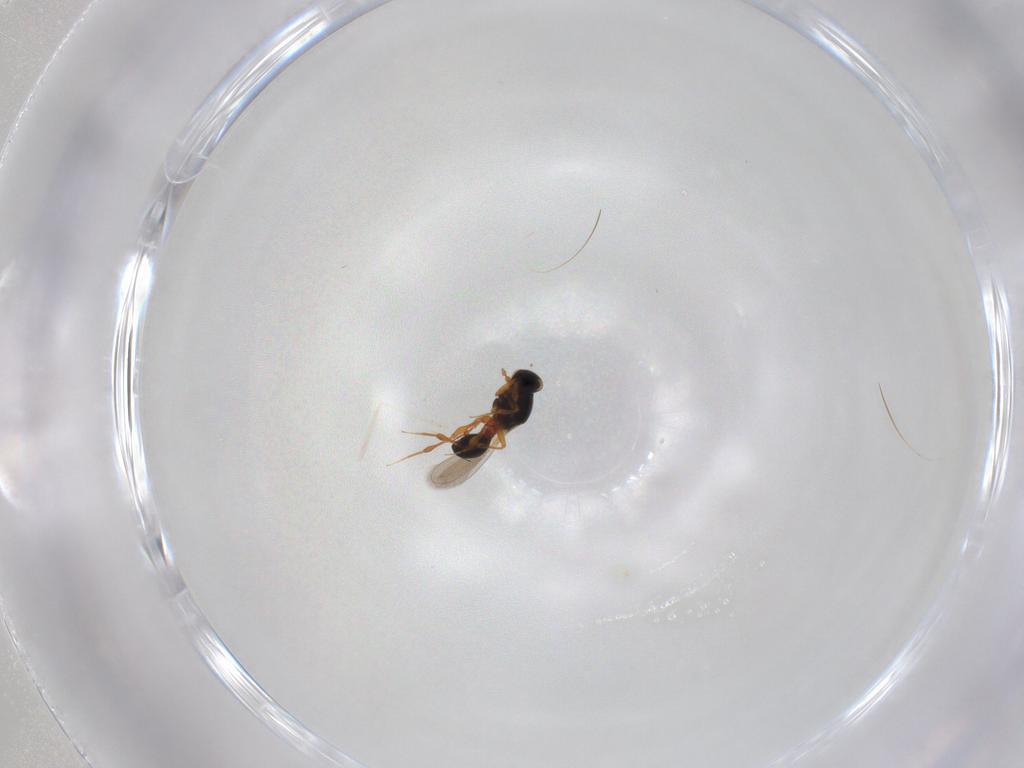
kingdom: Animalia
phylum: Arthropoda
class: Insecta
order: Hymenoptera
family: Platygastridae
